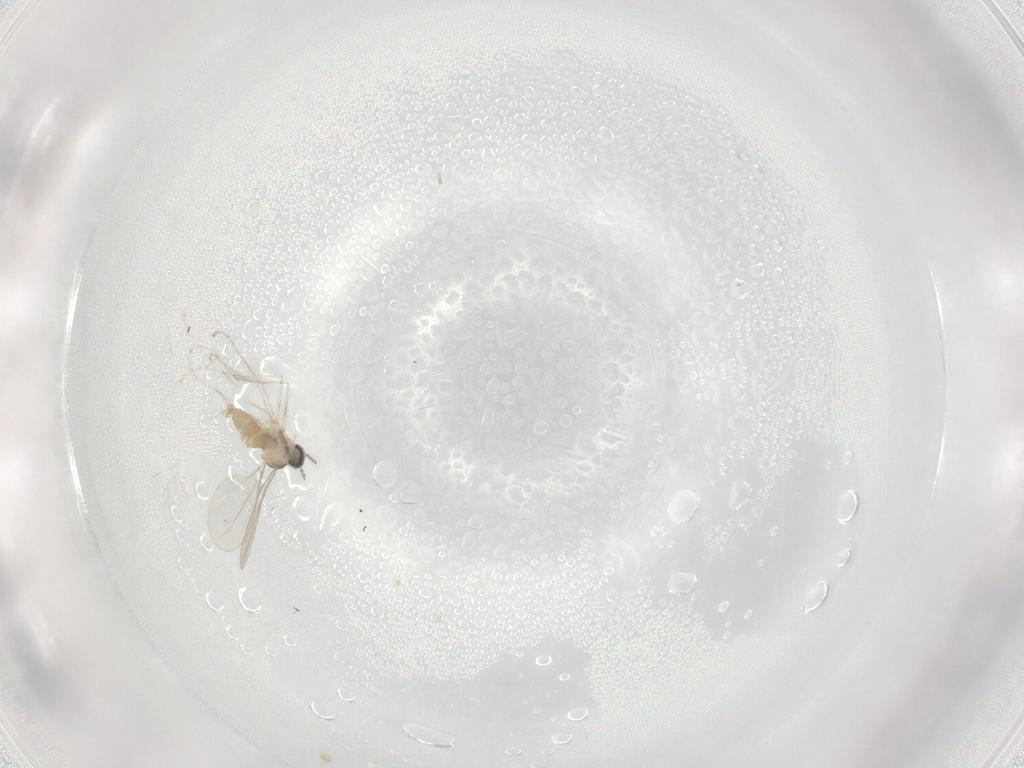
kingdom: Animalia
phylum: Arthropoda
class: Insecta
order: Diptera
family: Cecidomyiidae
